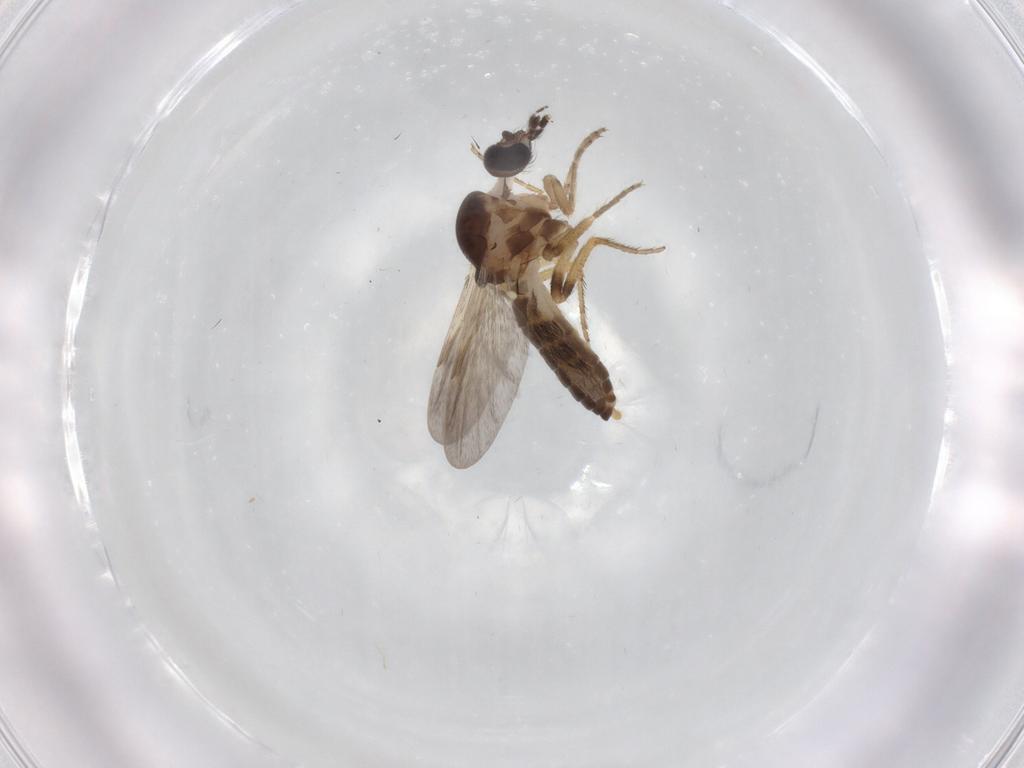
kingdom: Animalia
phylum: Arthropoda
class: Insecta
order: Diptera
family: Ceratopogonidae
